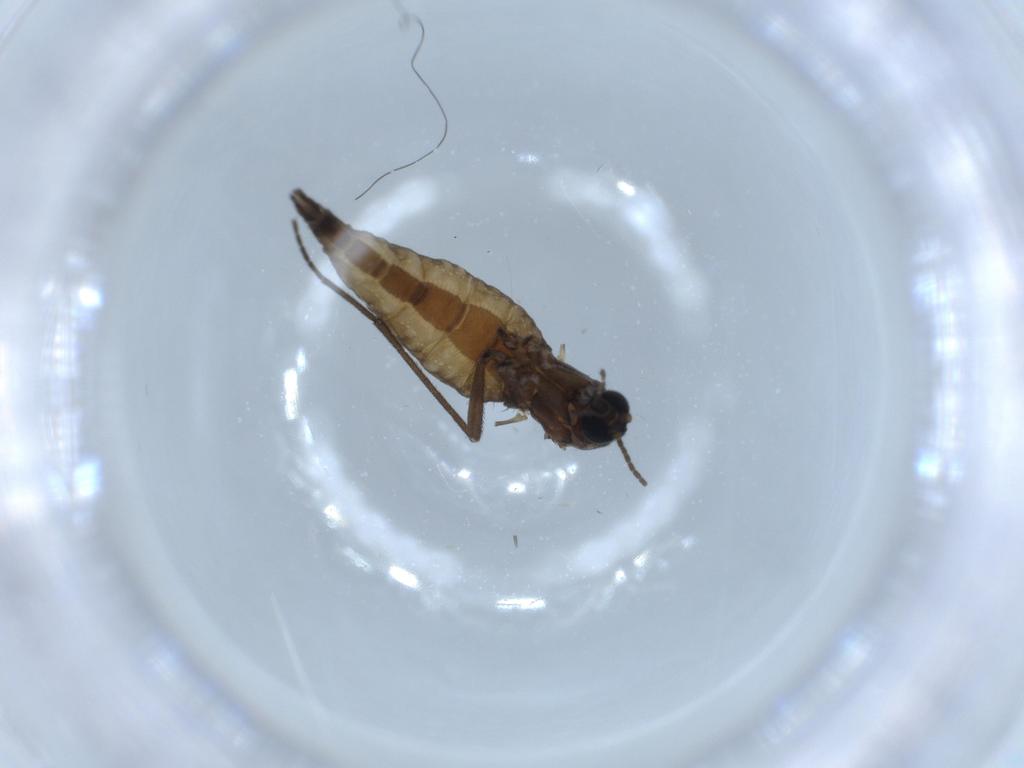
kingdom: Animalia
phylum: Arthropoda
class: Insecta
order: Diptera
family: Sciaridae
